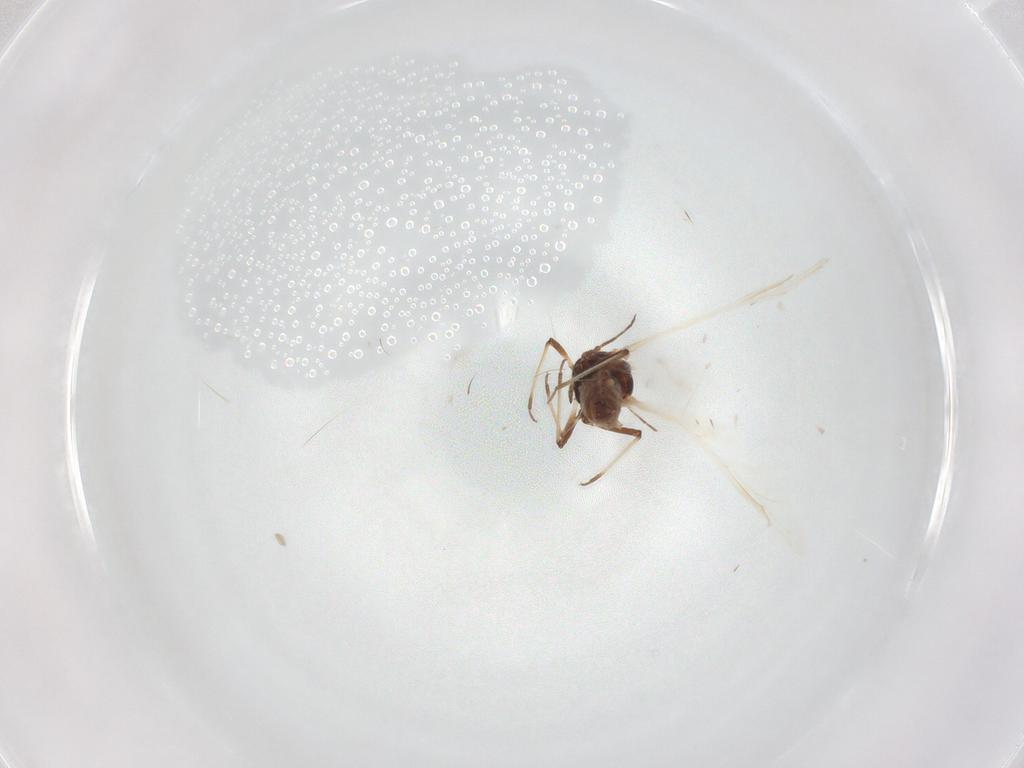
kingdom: Animalia
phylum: Arthropoda
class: Insecta
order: Hemiptera
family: Aphididae
